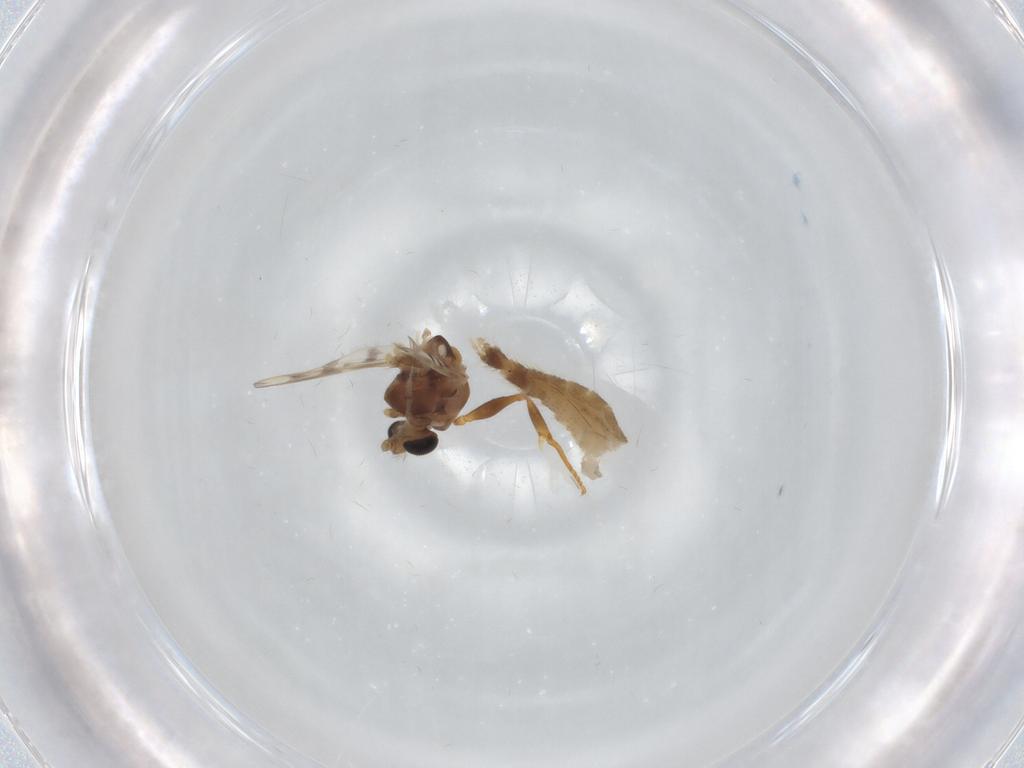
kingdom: Animalia
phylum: Arthropoda
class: Insecta
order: Diptera
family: Chironomidae
